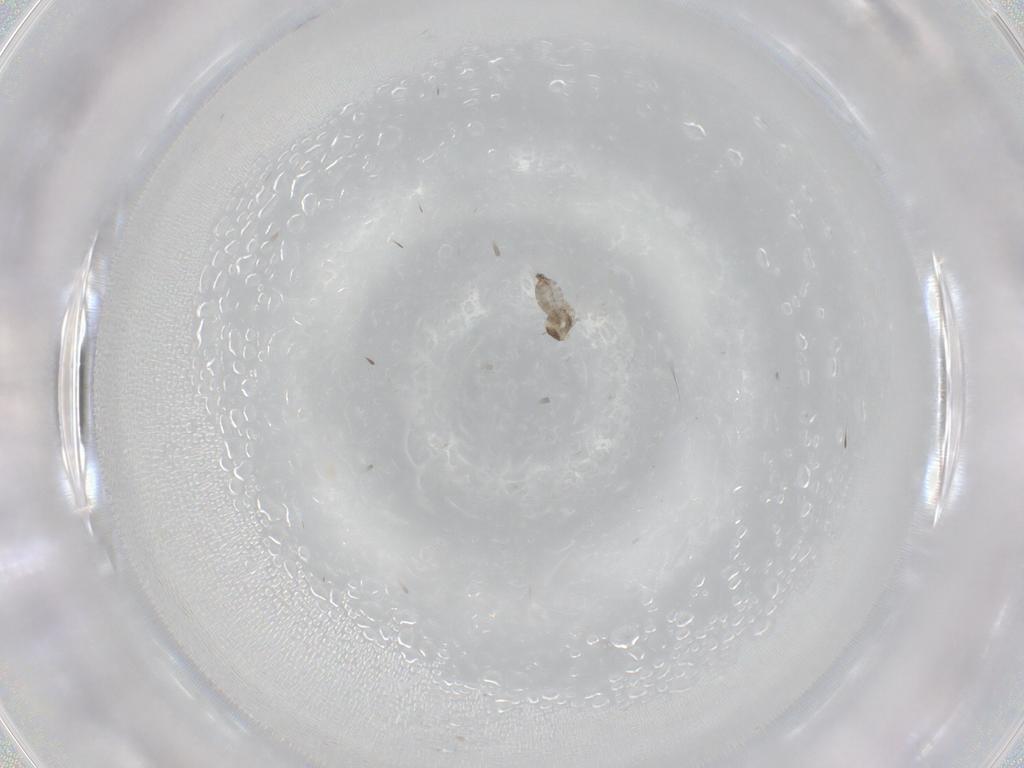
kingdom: Animalia
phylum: Arthropoda
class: Insecta
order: Diptera
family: Cecidomyiidae
